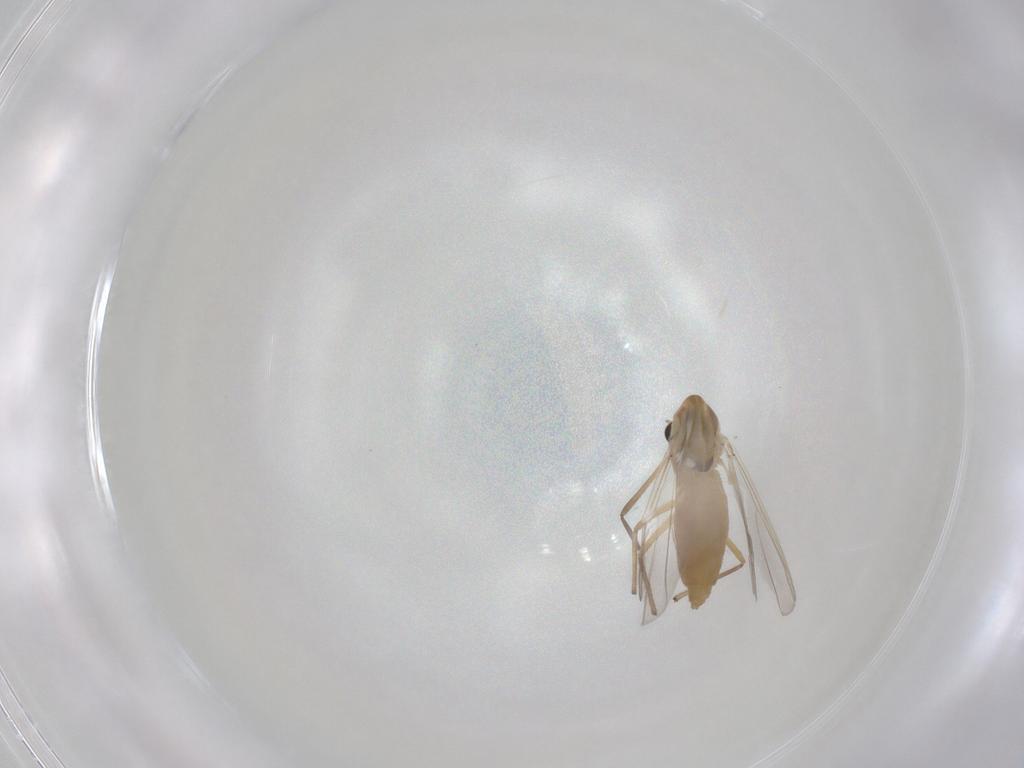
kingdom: Animalia
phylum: Arthropoda
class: Insecta
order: Diptera
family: Chironomidae
